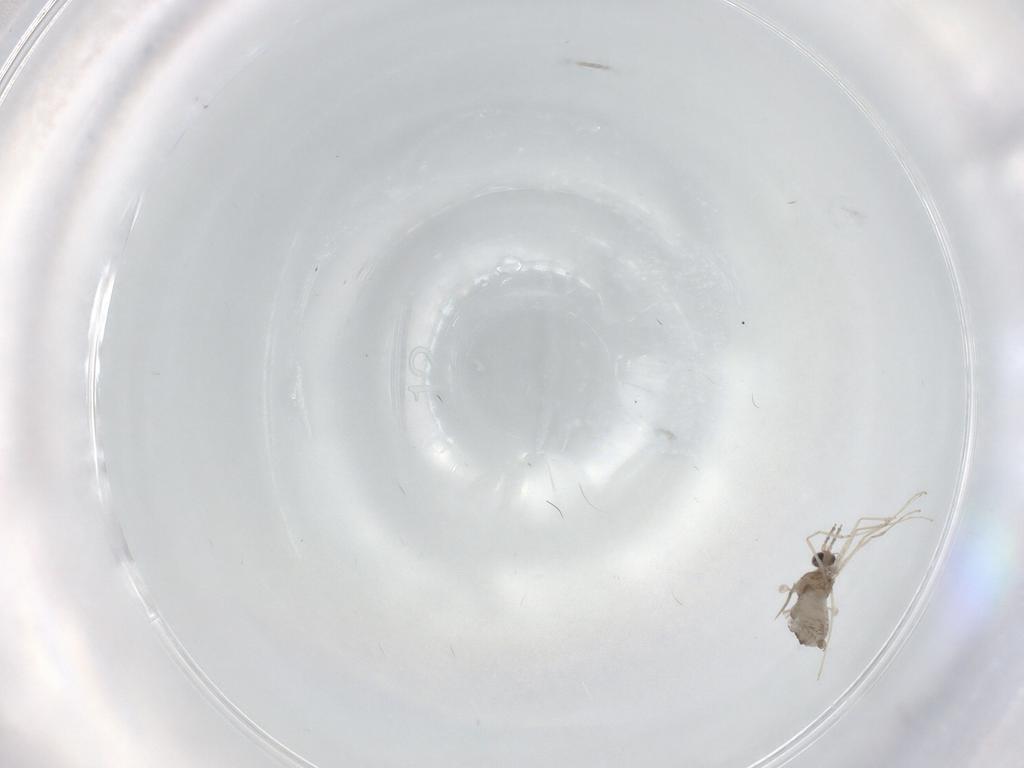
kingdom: Animalia
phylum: Arthropoda
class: Insecta
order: Diptera
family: Cecidomyiidae
